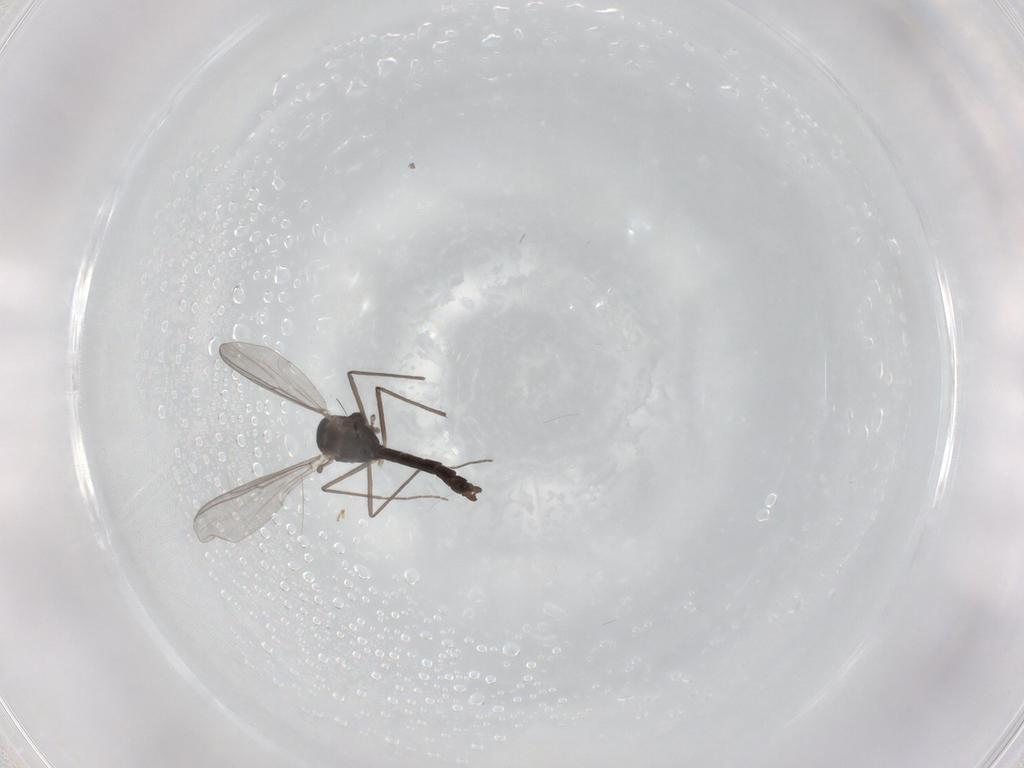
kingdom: Animalia
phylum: Arthropoda
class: Insecta
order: Diptera
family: Chironomidae
